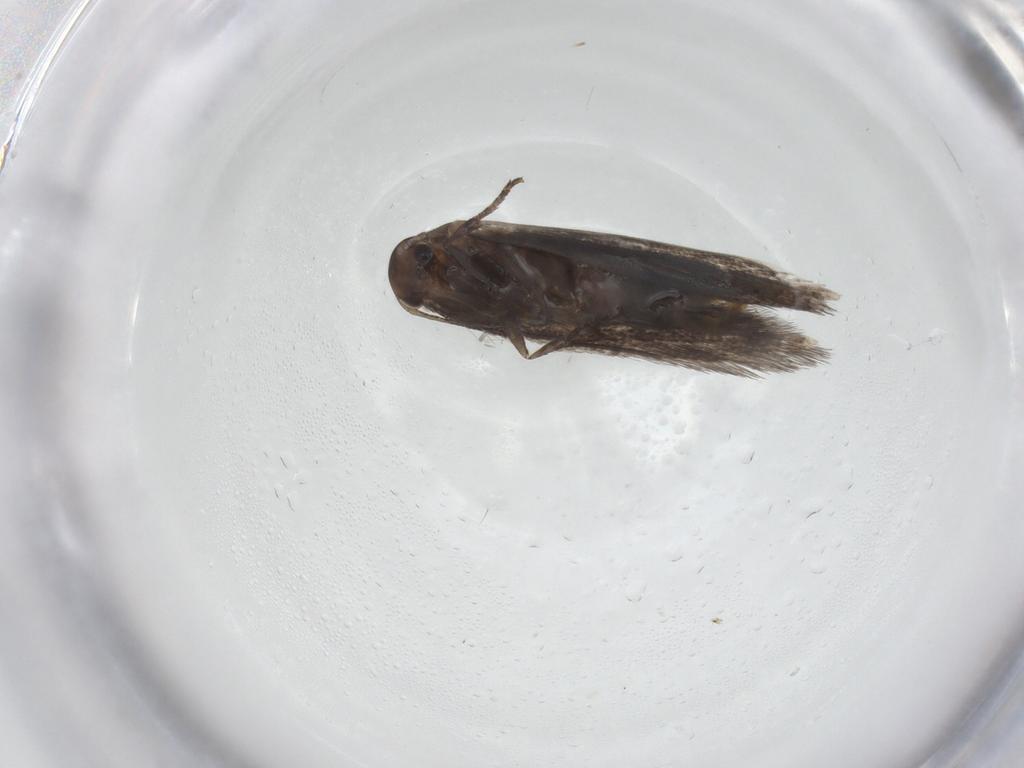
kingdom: Animalia
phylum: Arthropoda
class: Insecta
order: Lepidoptera
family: Elachistidae
